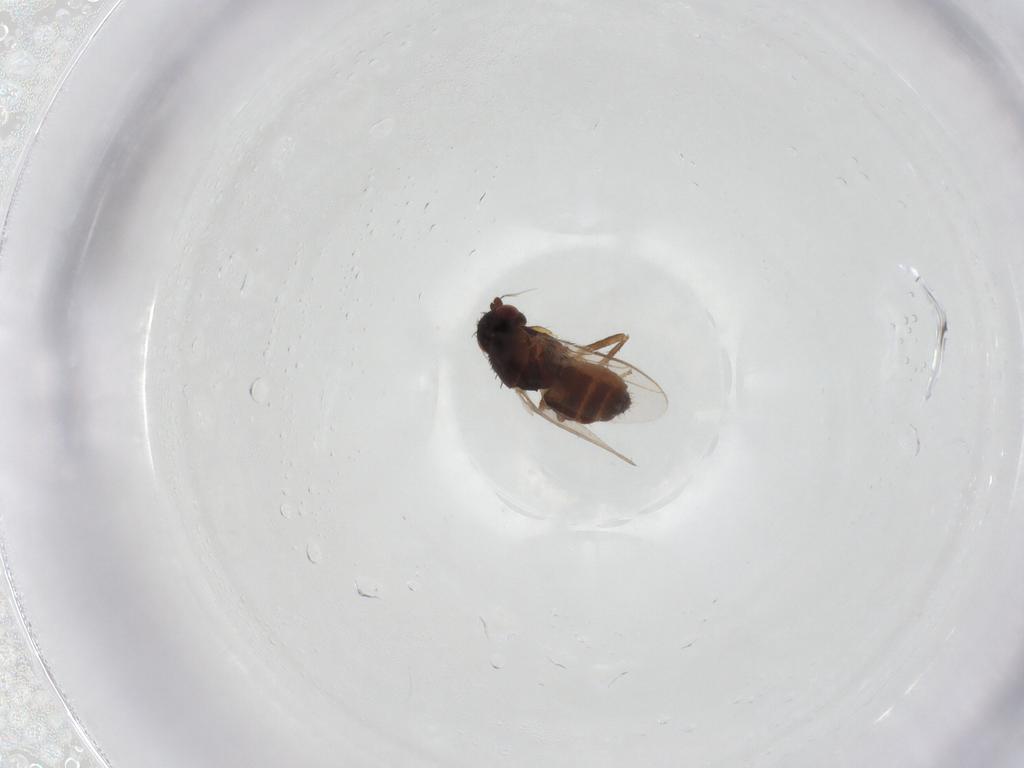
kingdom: Animalia
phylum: Arthropoda
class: Insecta
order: Diptera
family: Sphaeroceridae
